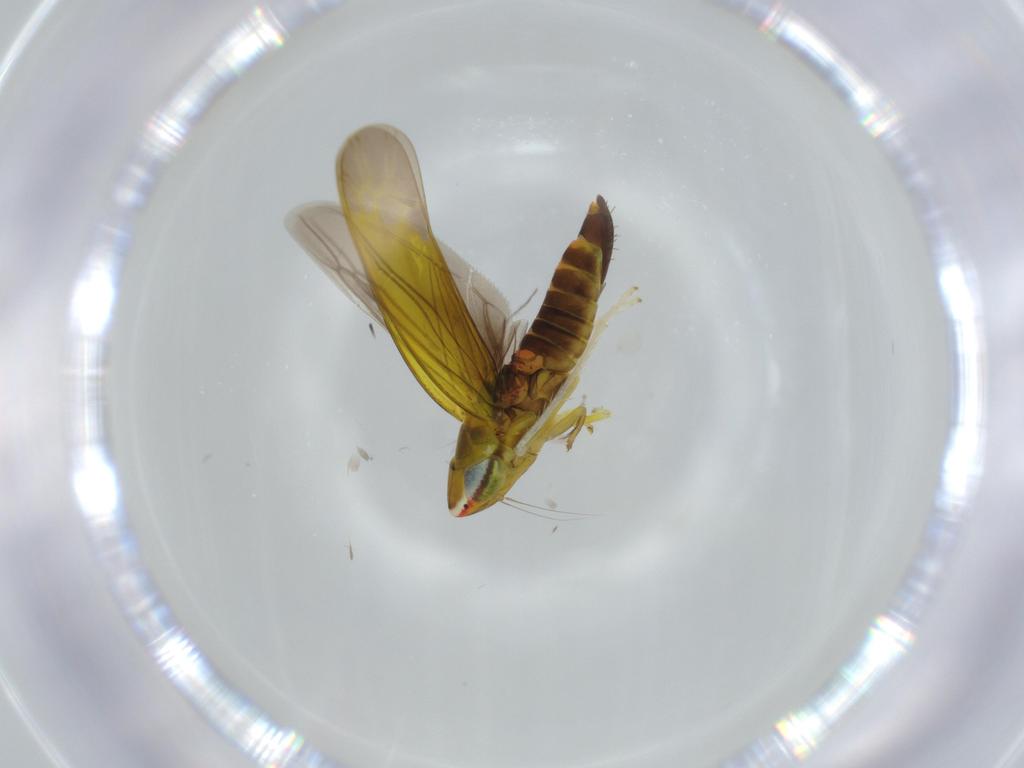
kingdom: Animalia
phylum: Arthropoda
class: Insecta
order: Hemiptera
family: Cicadellidae
